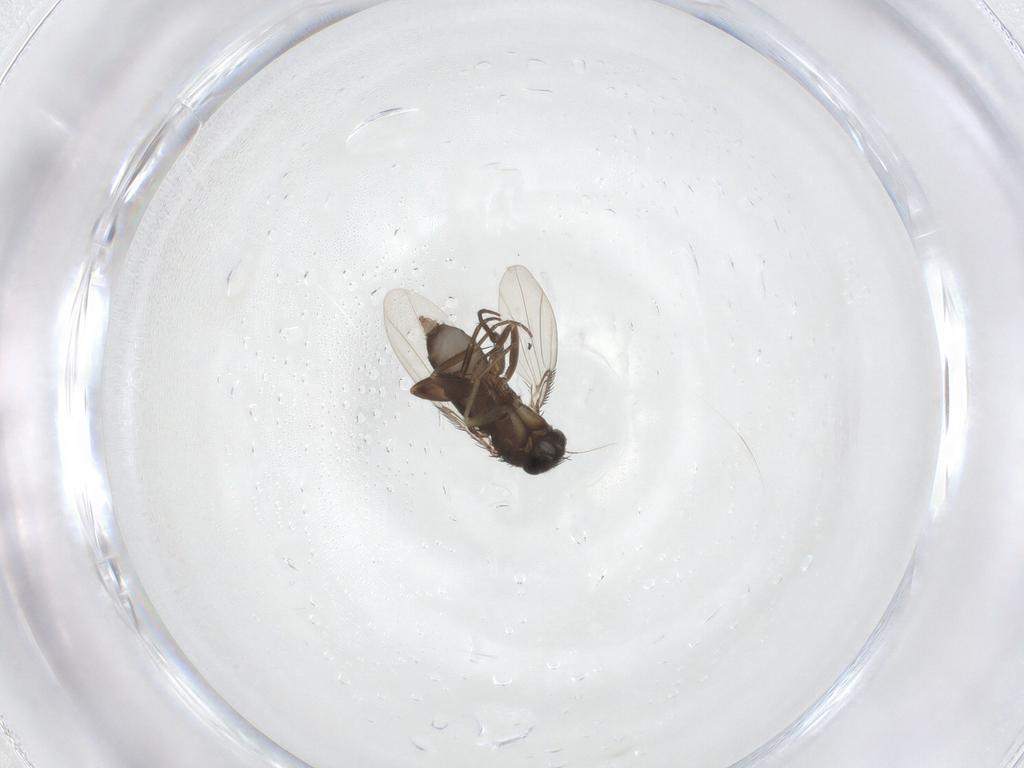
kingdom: Animalia
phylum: Arthropoda
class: Insecta
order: Diptera
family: Phoridae
